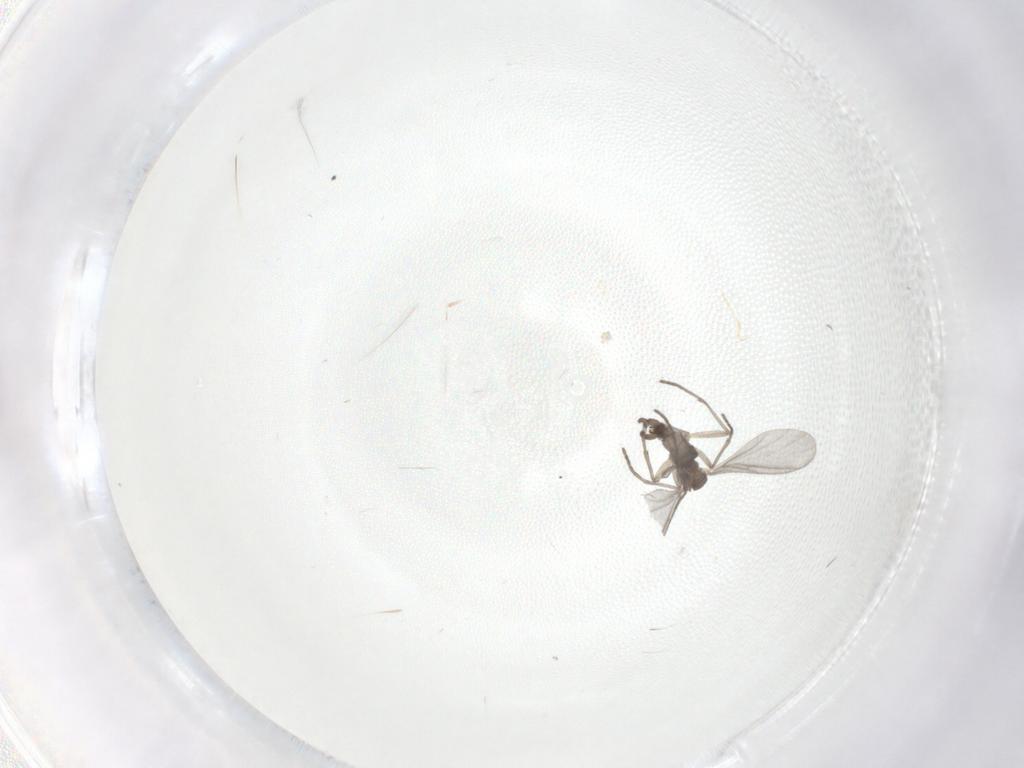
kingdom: Animalia
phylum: Arthropoda
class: Insecta
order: Diptera
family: Sciaridae
